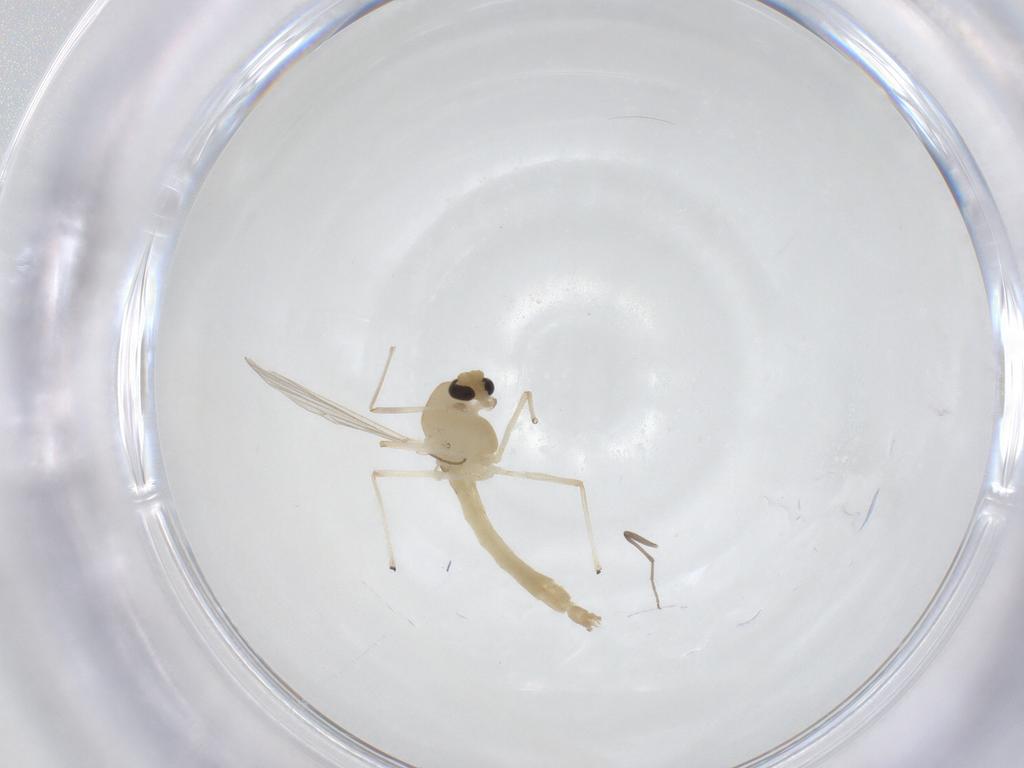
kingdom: Animalia
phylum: Arthropoda
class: Insecta
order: Diptera
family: Chironomidae
